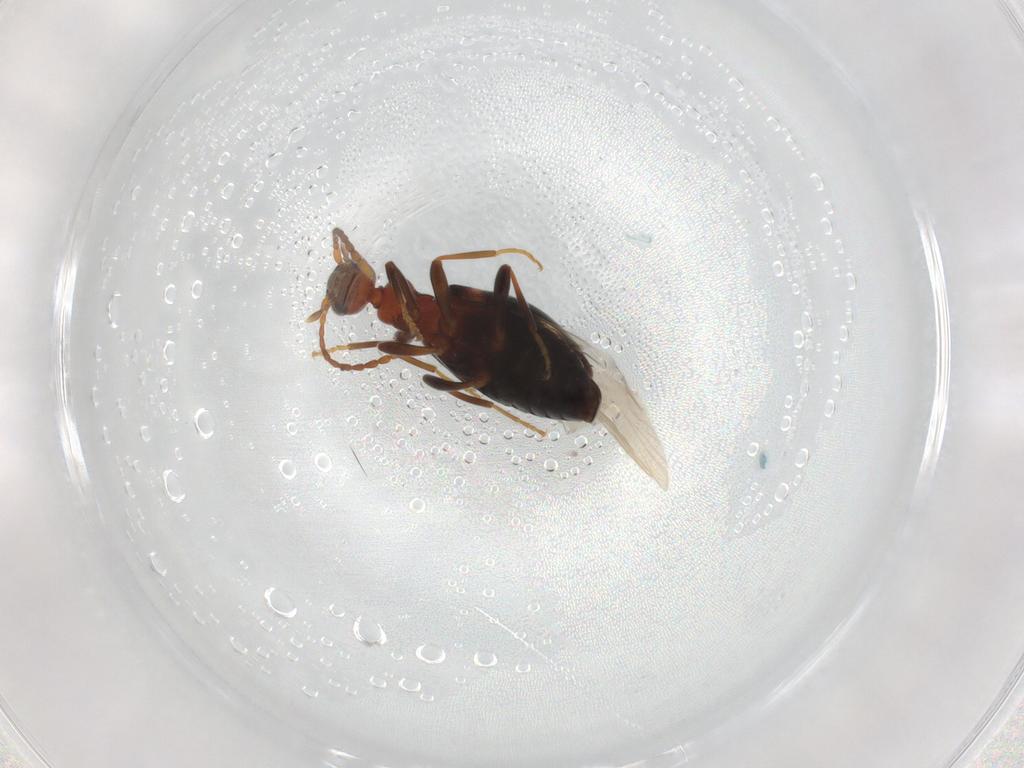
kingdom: Animalia
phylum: Arthropoda
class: Insecta
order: Coleoptera
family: Anthicidae
